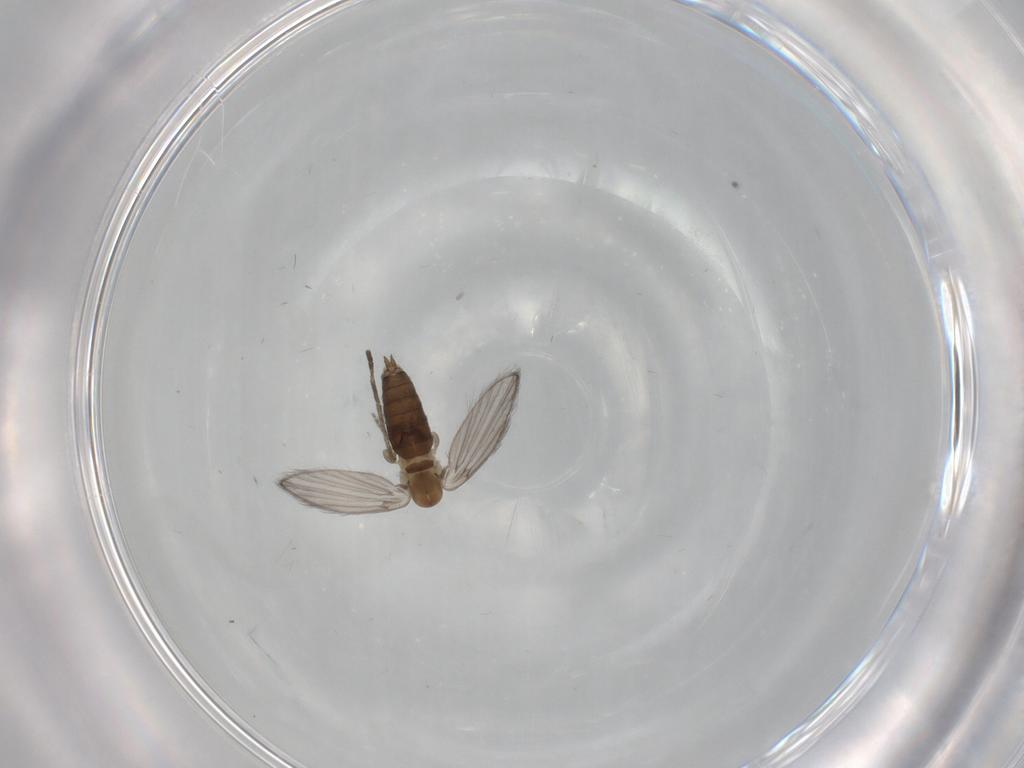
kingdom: Animalia
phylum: Arthropoda
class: Insecta
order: Diptera
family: Psychodidae
